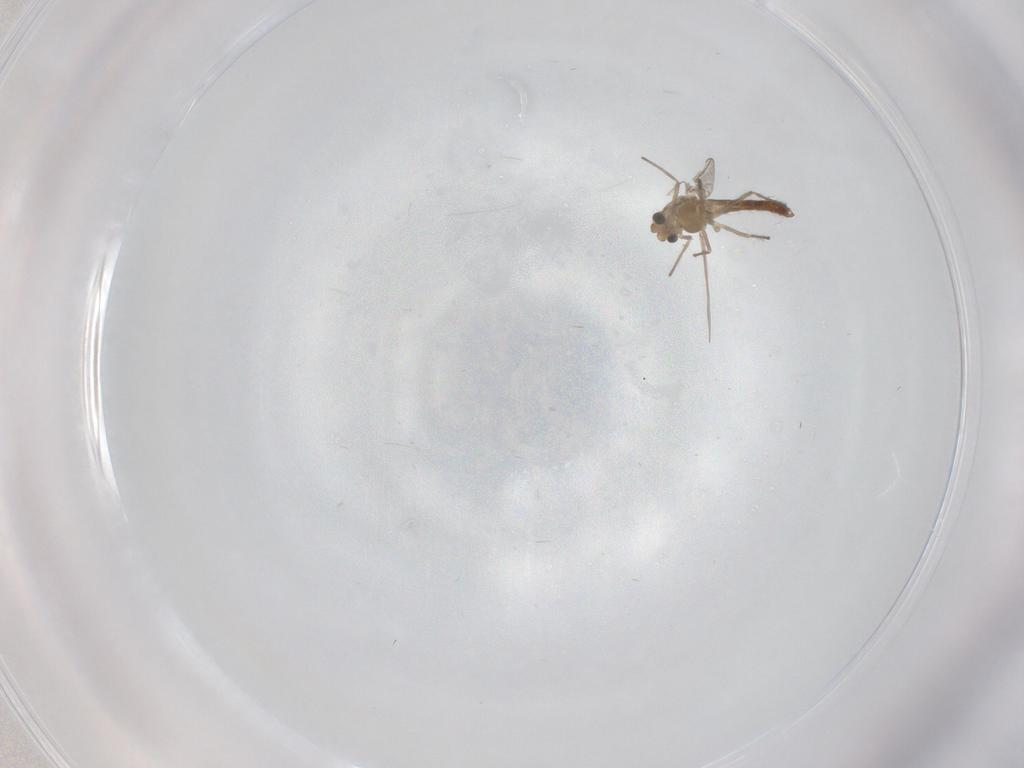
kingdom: Animalia
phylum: Arthropoda
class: Insecta
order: Diptera
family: Chironomidae
